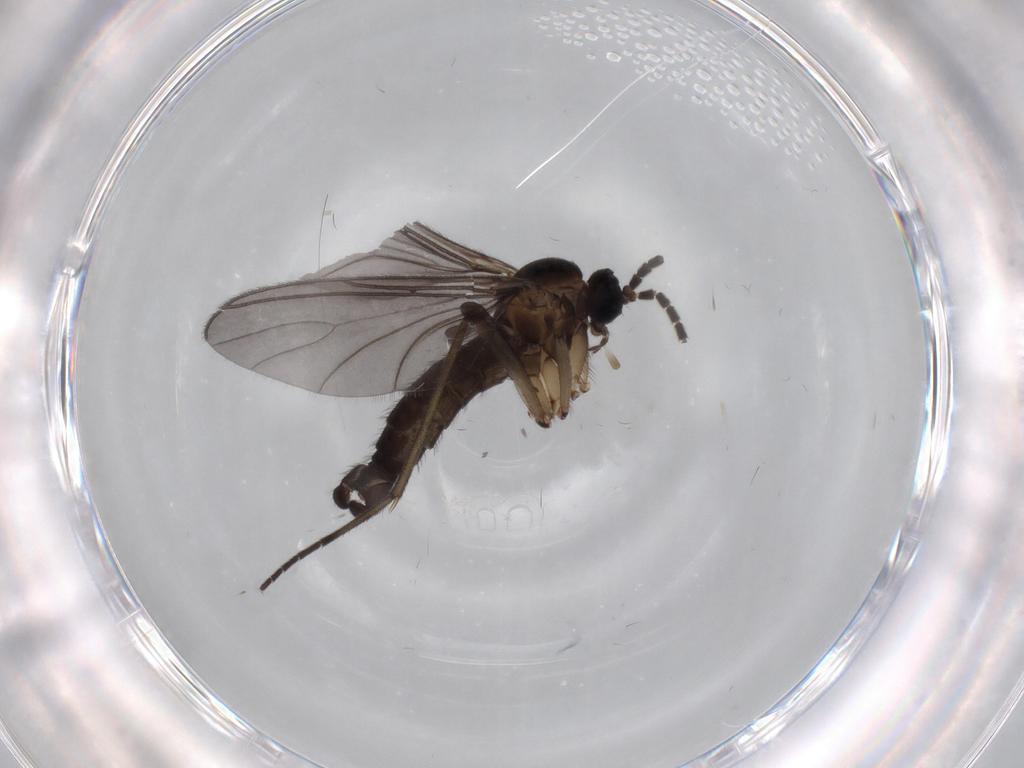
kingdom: Animalia
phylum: Arthropoda
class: Insecta
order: Diptera
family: Sciaridae
